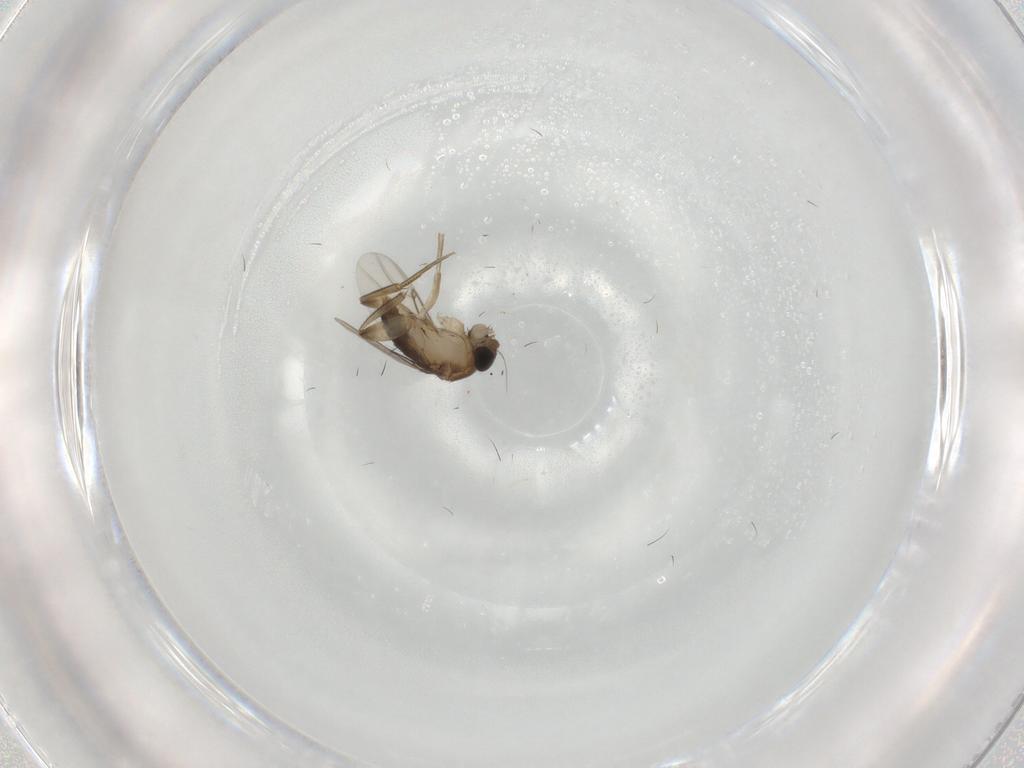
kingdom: Animalia
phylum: Arthropoda
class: Insecta
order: Diptera
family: Phoridae
